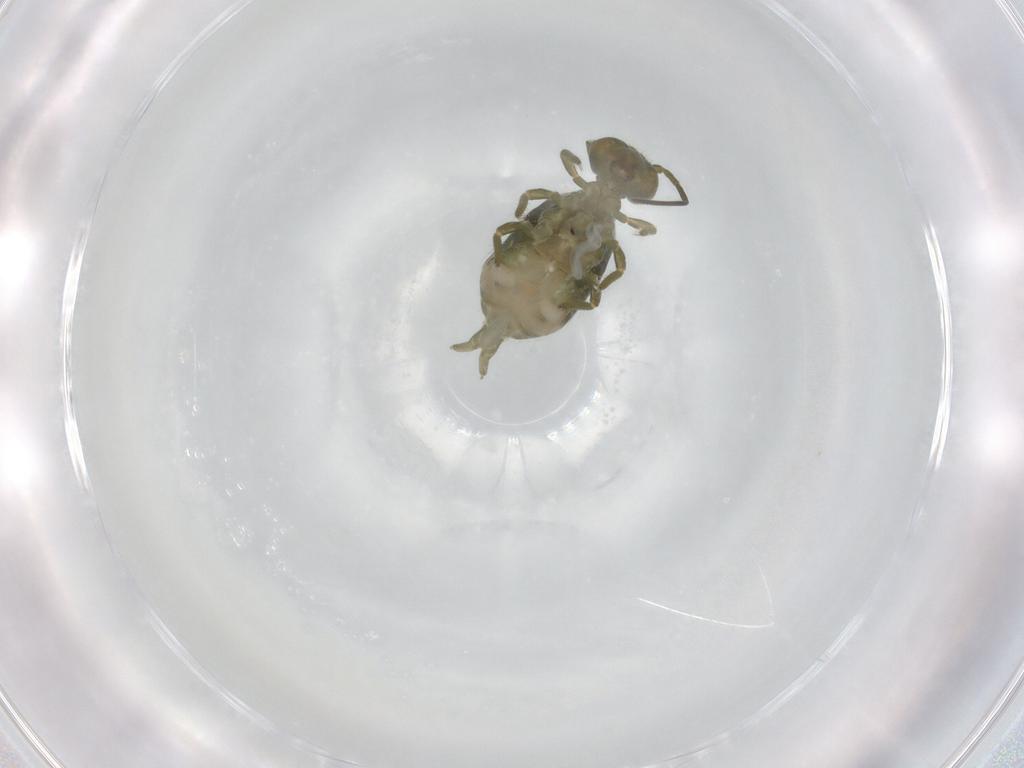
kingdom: Animalia
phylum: Arthropoda
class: Collembola
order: Symphypleona
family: Sminthuridae
